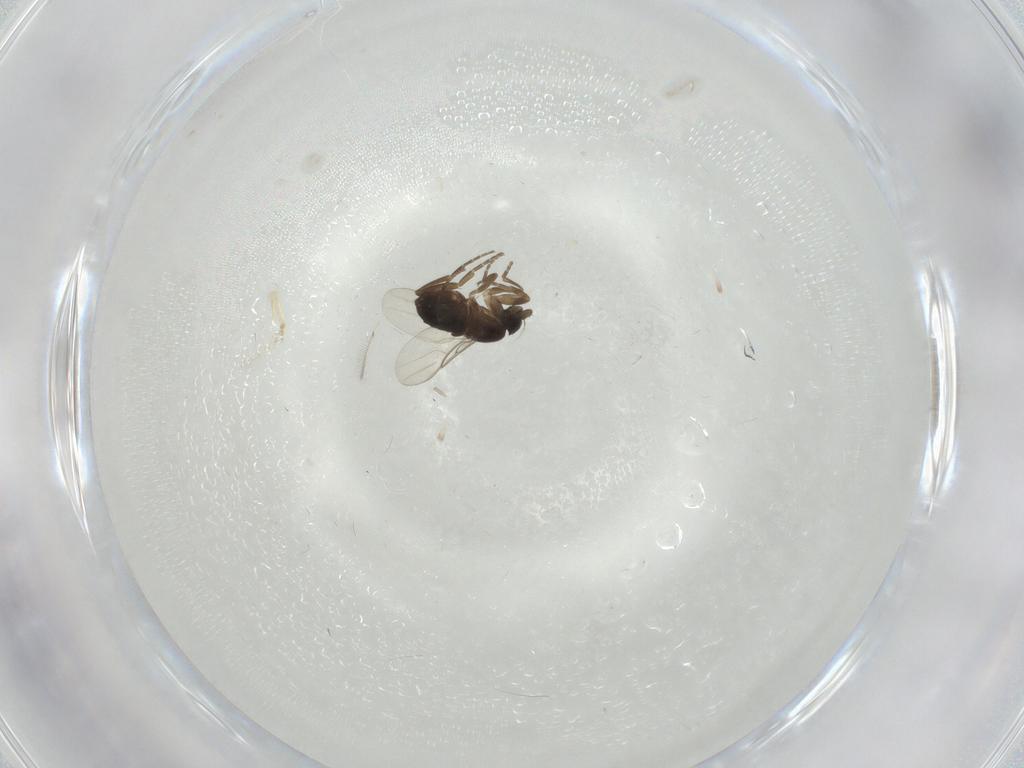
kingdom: Animalia
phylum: Arthropoda
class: Insecta
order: Diptera
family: Phoridae
